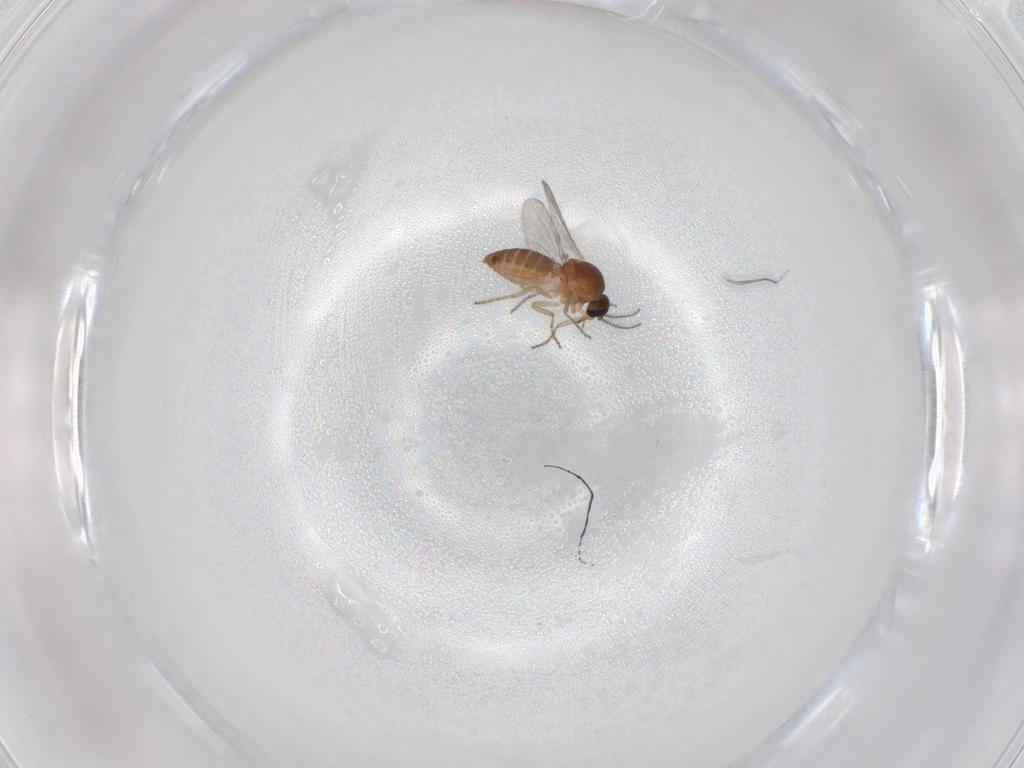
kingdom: Animalia
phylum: Arthropoda
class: Insecta
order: Diptera
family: Ceratopogonidae
